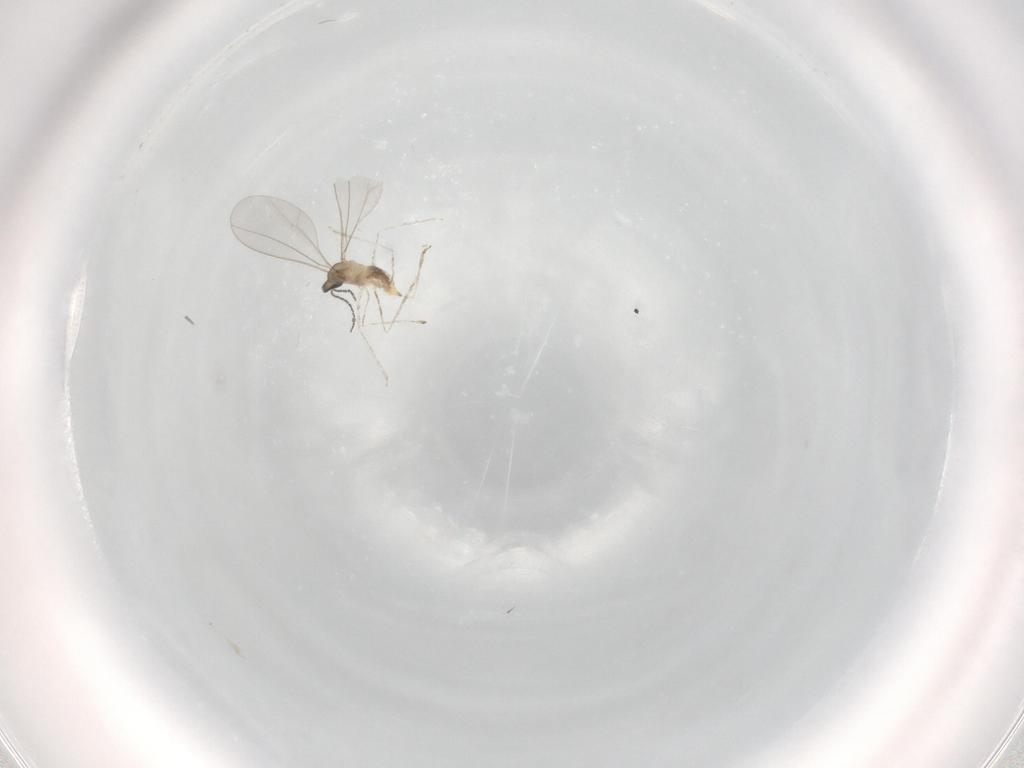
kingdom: Animalia
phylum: Arthropoda
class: Insecta
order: Diptera
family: Cecidomyiidae
